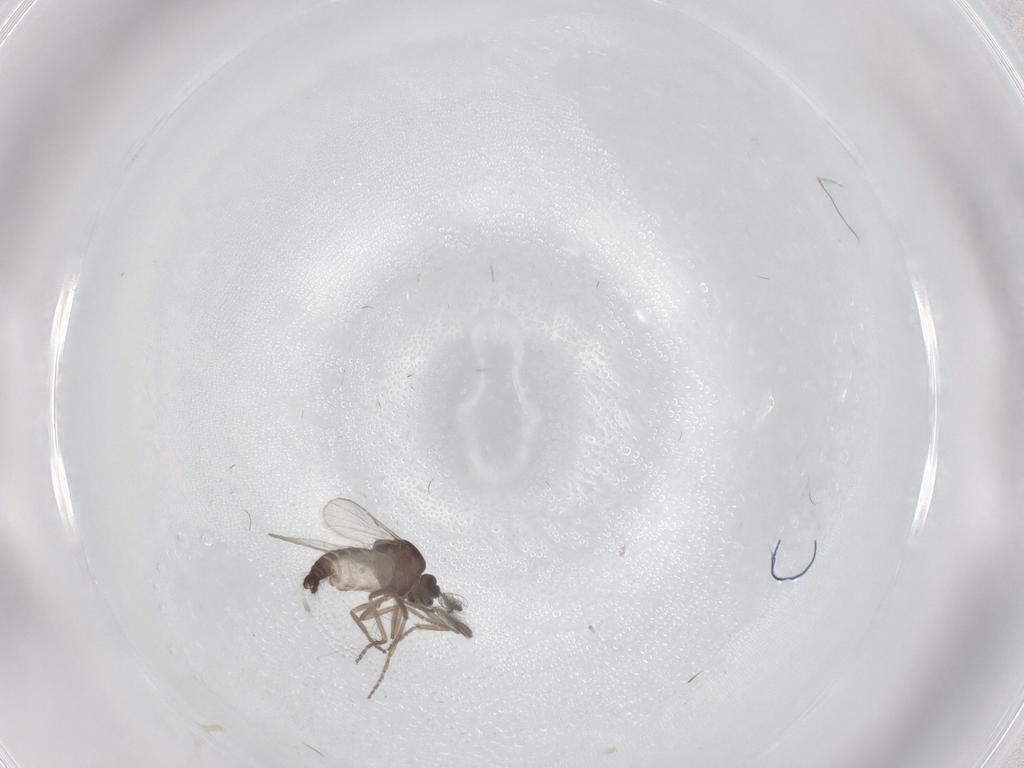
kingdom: Animalia
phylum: Arthropoda
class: Insecta
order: Diptera
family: Ceratopogonidae
